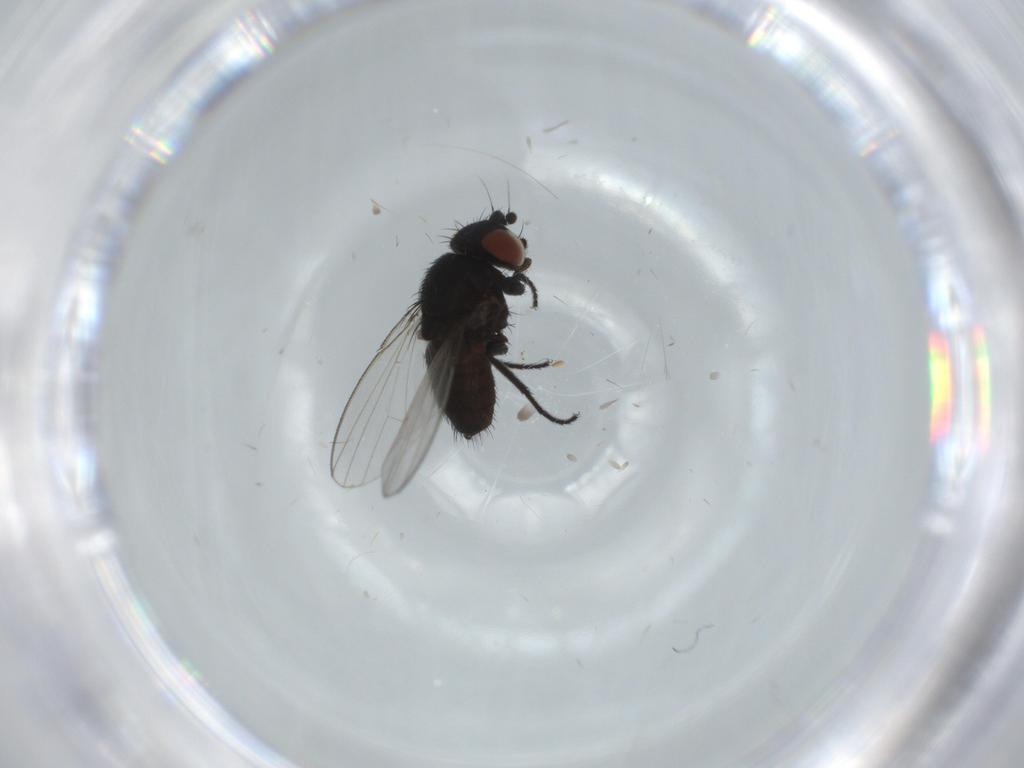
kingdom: Animalia
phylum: Arthropoda
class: Insecta
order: Diptera
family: Milichiidae
